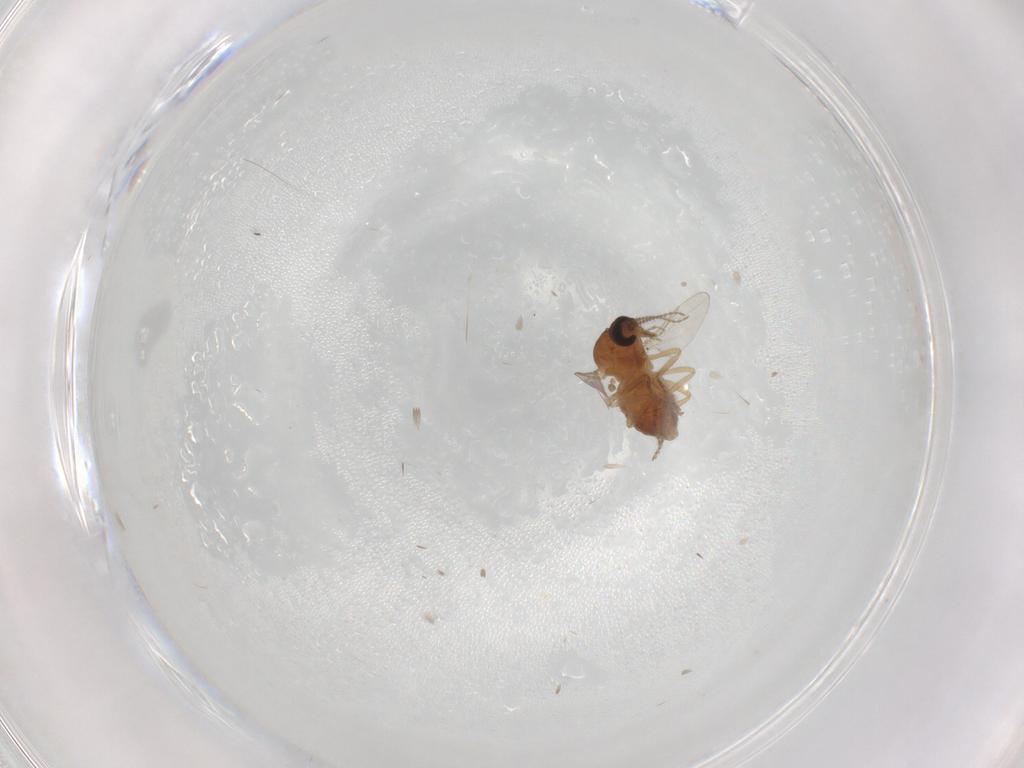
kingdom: Animalia
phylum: Arthropoda
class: Insecta
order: Diptera
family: Ceratopogonidae
